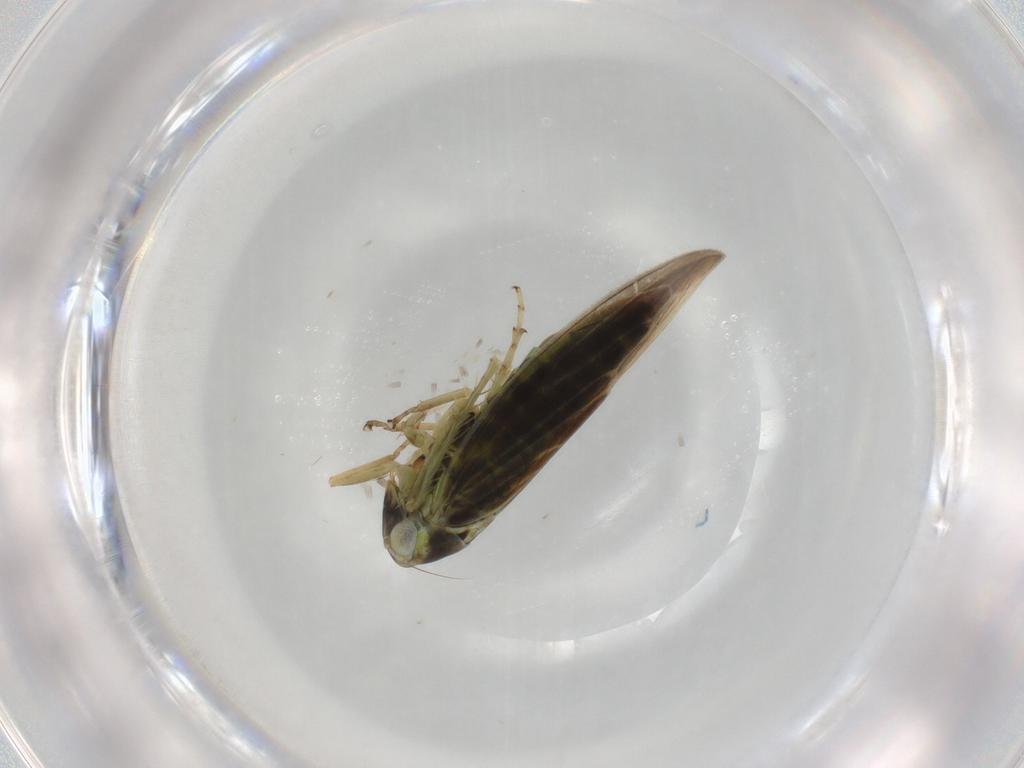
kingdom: Animalia
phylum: Arthropoda
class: Insecta
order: Hemiptera
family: Cicadellidae
